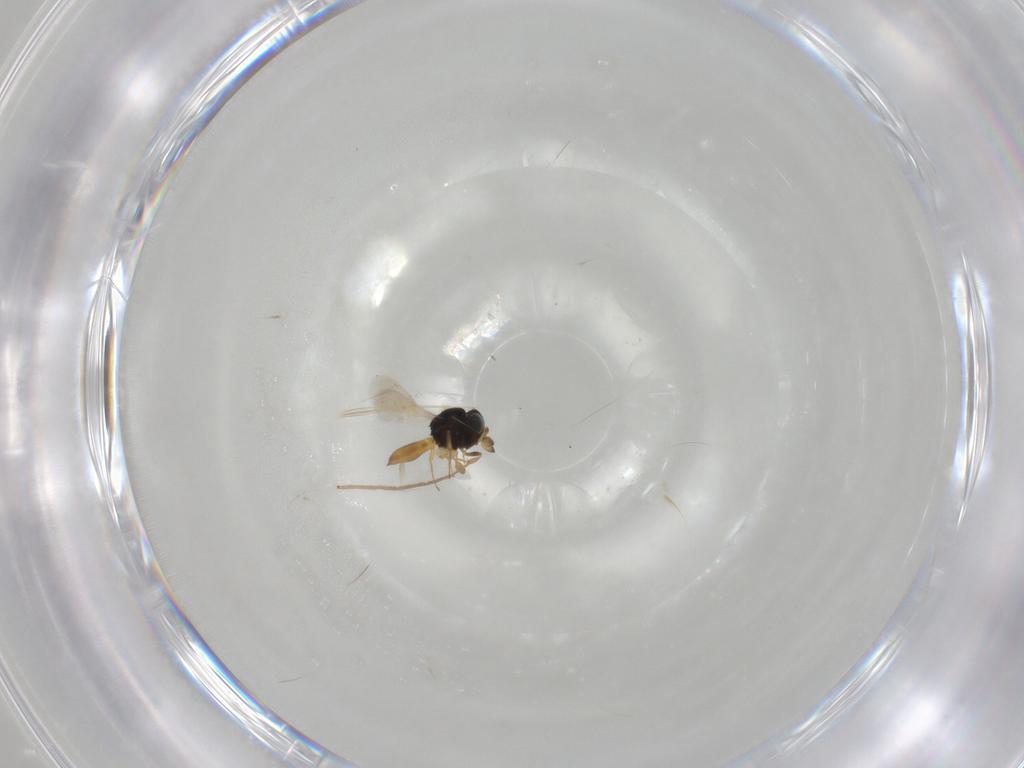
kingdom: Animalia
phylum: Arthropoda
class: Insecta
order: Hymenoptera
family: Scelionidae
